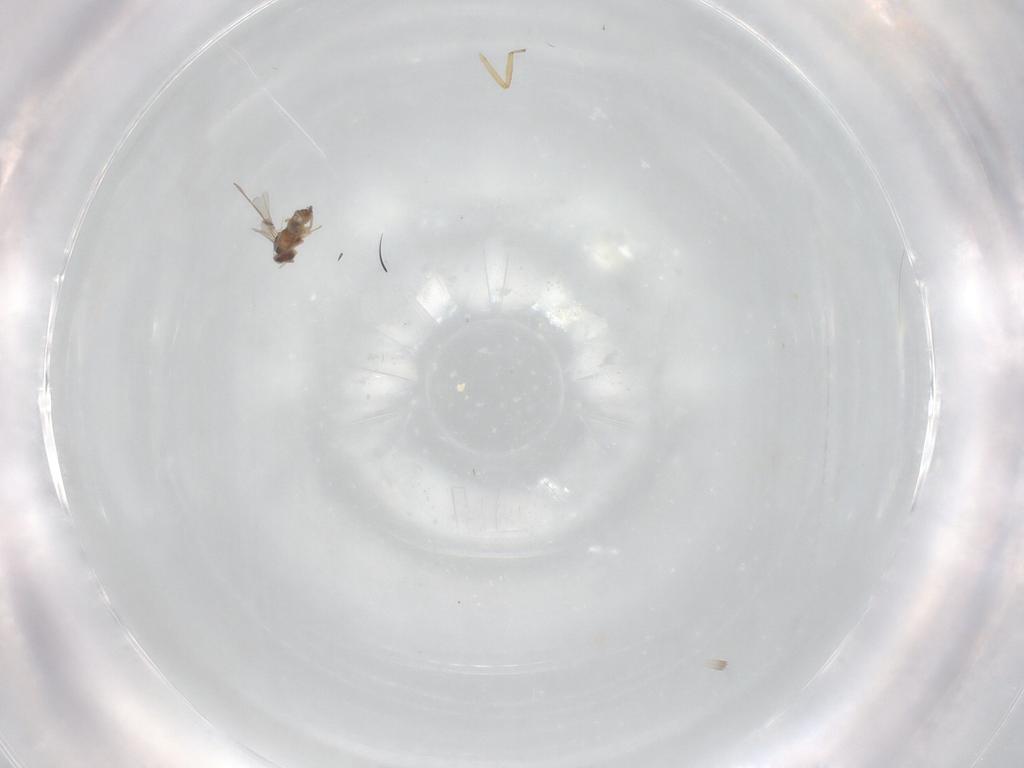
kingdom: Animalia
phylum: Arthropoda
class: Insecta
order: Diptera
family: Cecidomyiidae
